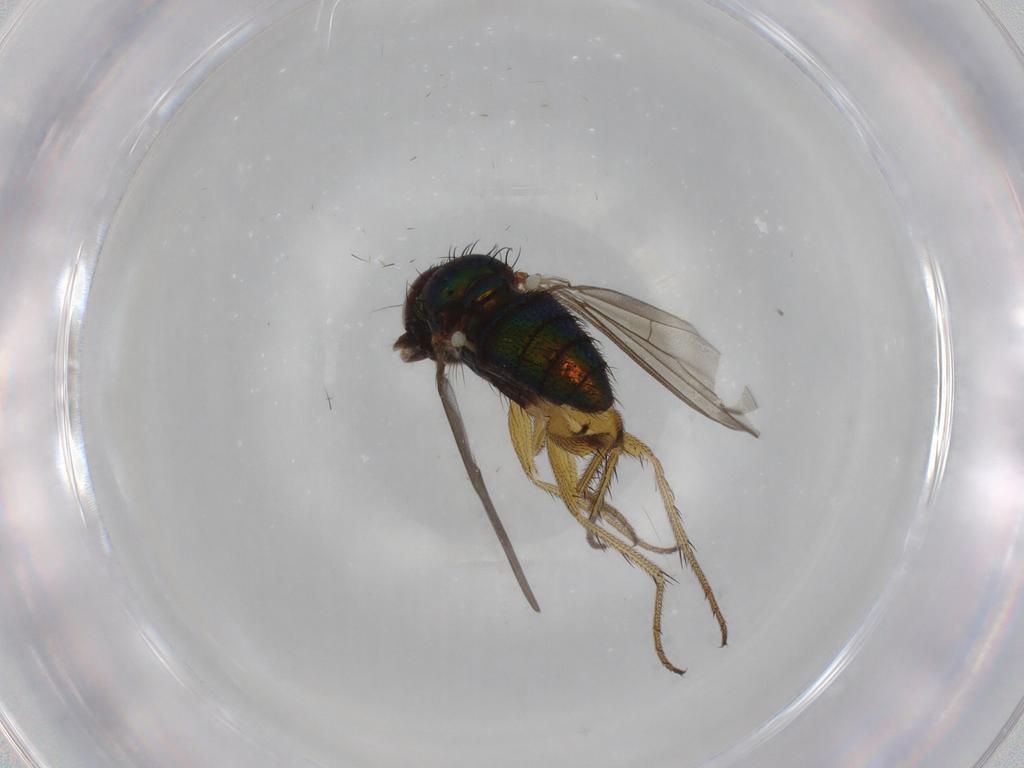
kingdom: Animalia
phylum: Arthropoda
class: Insecta
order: Diptera
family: Dolichopodidae
